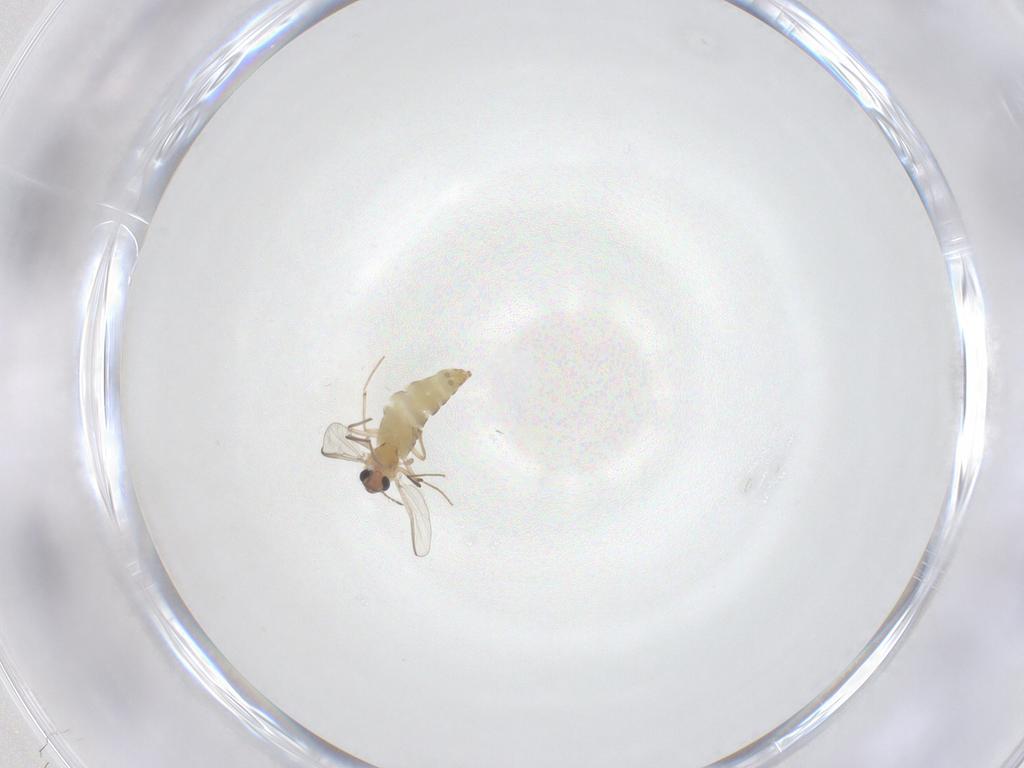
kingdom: Animalia
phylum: Arthropoda
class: Insecta
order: Diptera
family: Chironomidae
